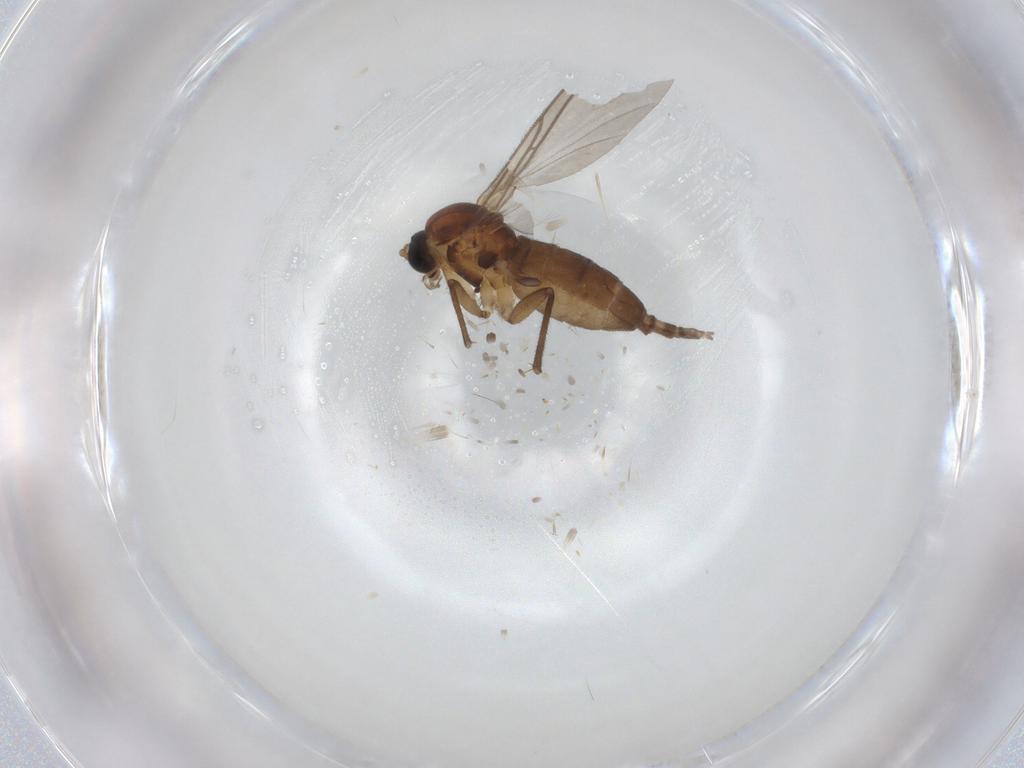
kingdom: Animalia
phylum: Arthropoda
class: Insecta
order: Diptera
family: Sciaridae
